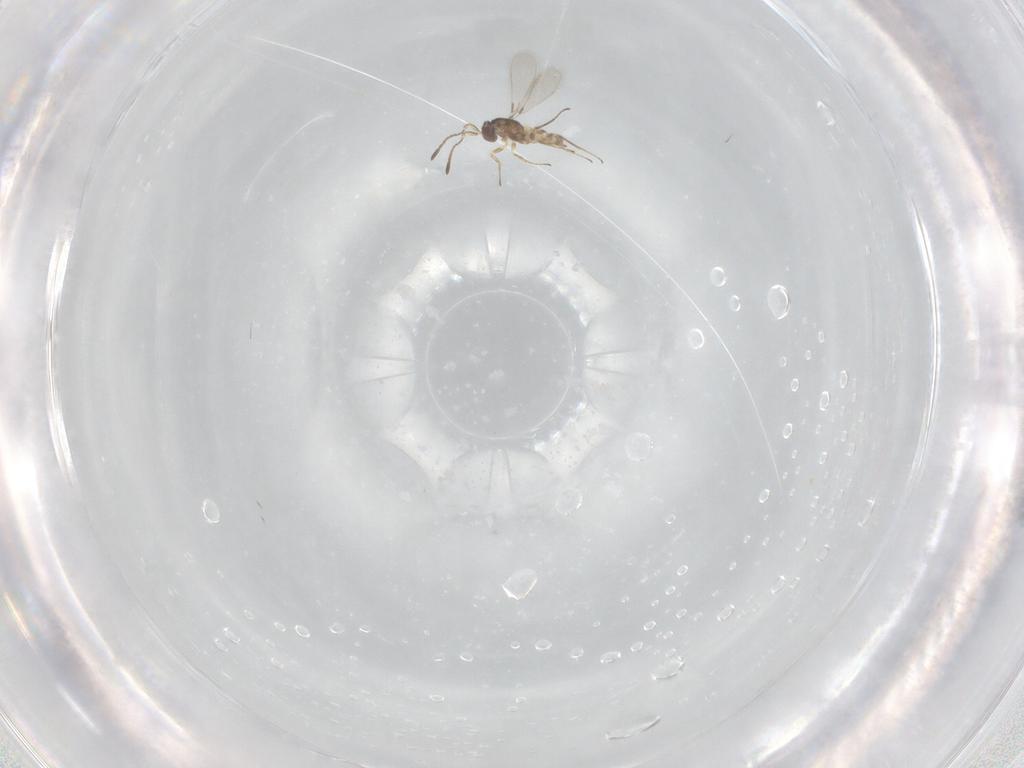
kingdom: Animalia
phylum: Arthropoda
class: Insecta
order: Hymenoptera
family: Mymaridae
